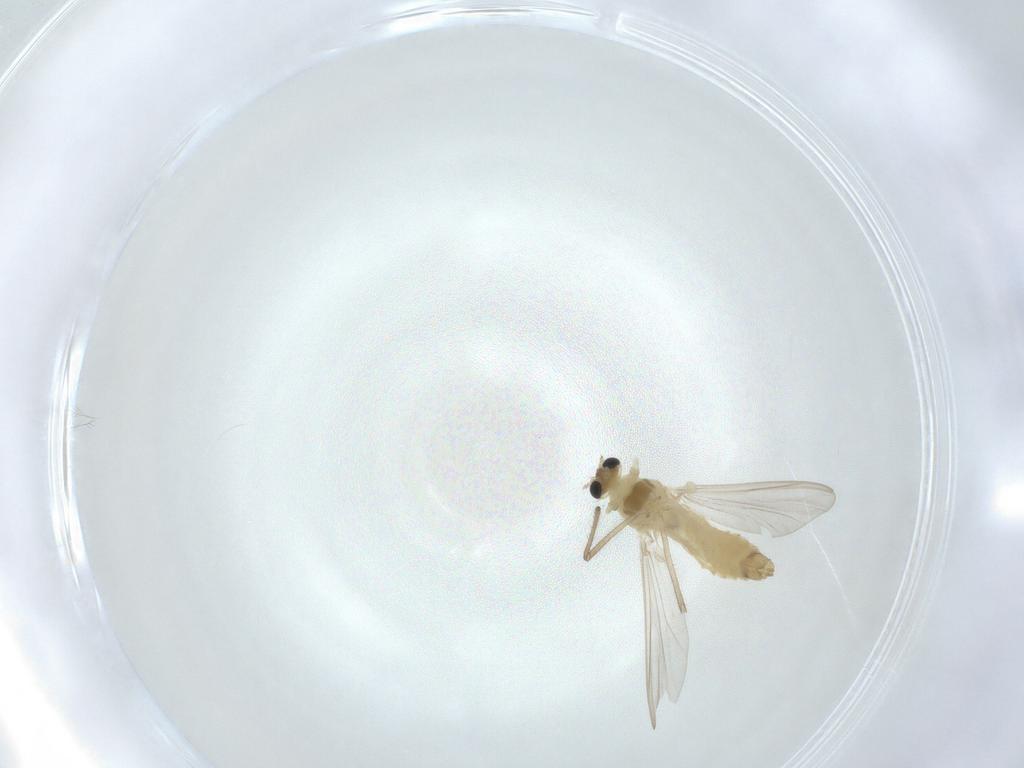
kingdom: Animalia
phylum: Arthropoda
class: Insecta
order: Diptera
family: Chironomidae
